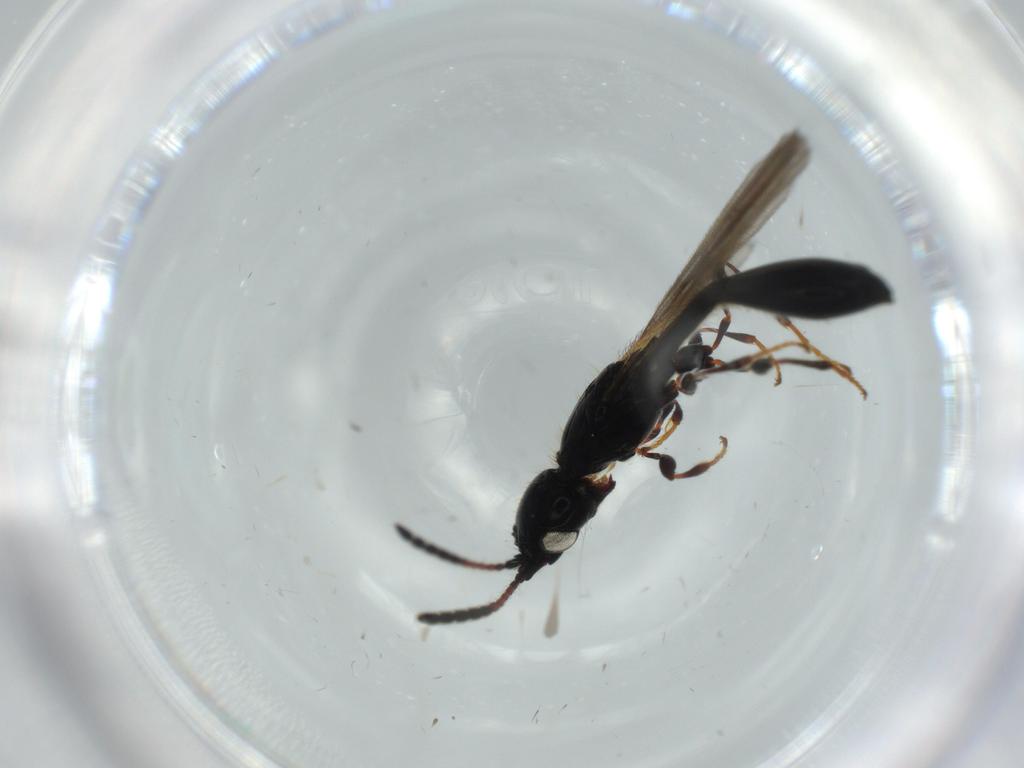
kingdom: Animalia
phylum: Arthropoda
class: Insecta
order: Hymenoptera
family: Diapriidae
